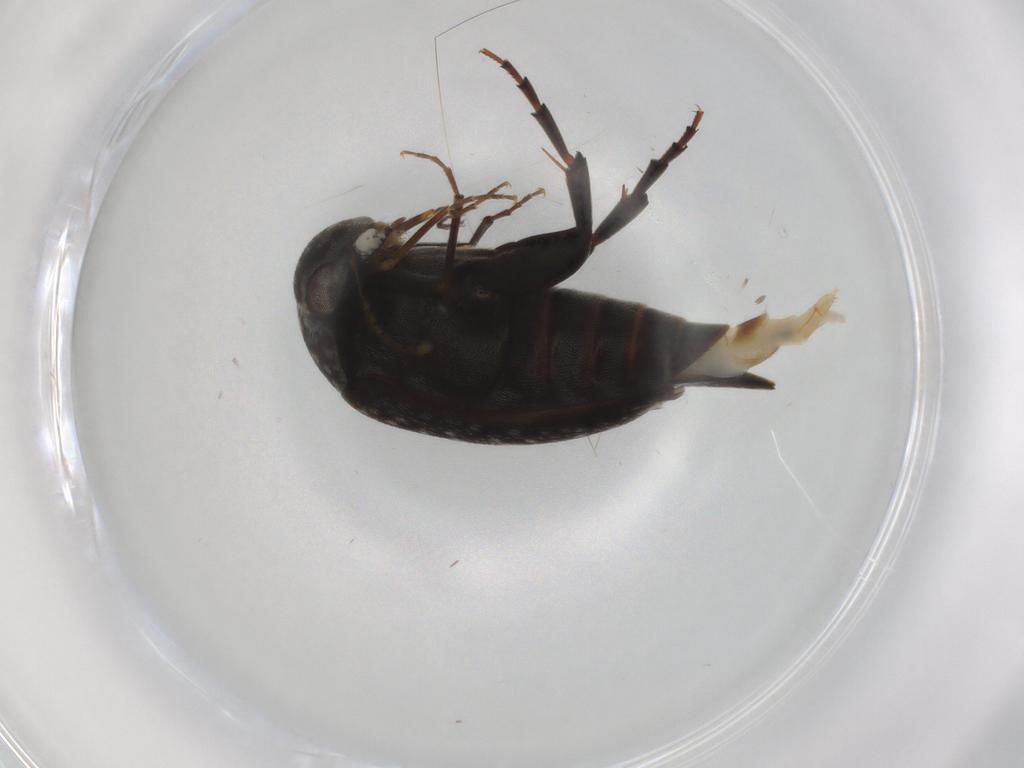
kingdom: Animalia
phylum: Arthropoda
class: Insecta
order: Coleoptera
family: Mordellidae
